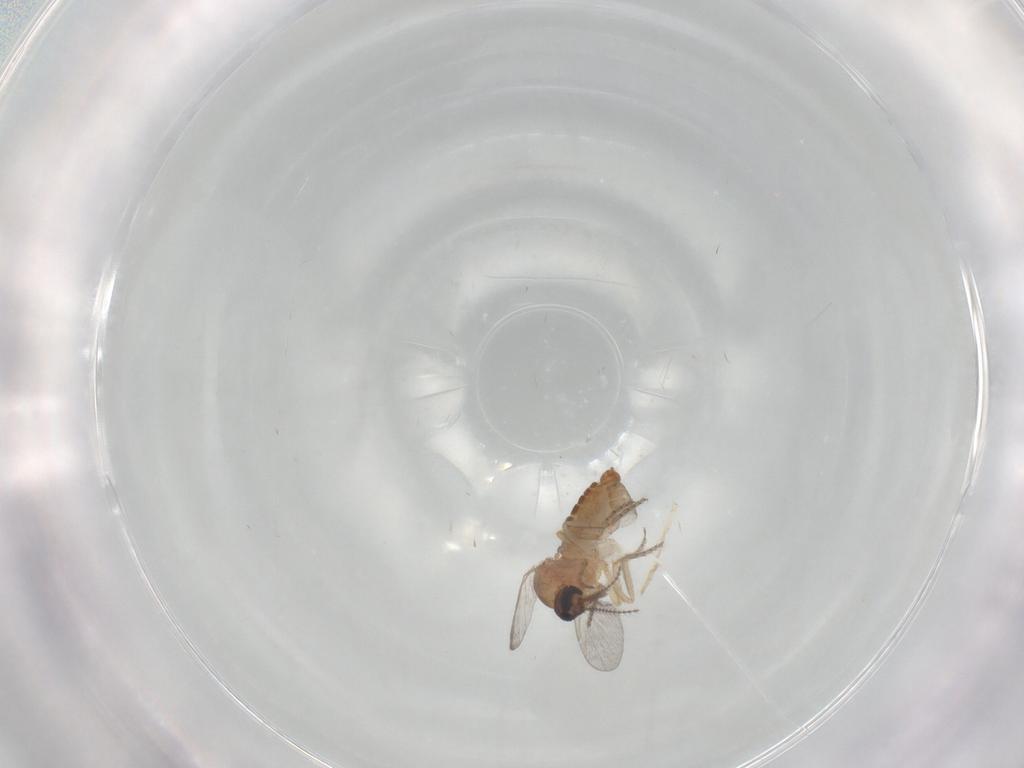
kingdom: Animalia
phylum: Arthropoda
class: Insecta
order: Diptera
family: Ceratopogonidae
